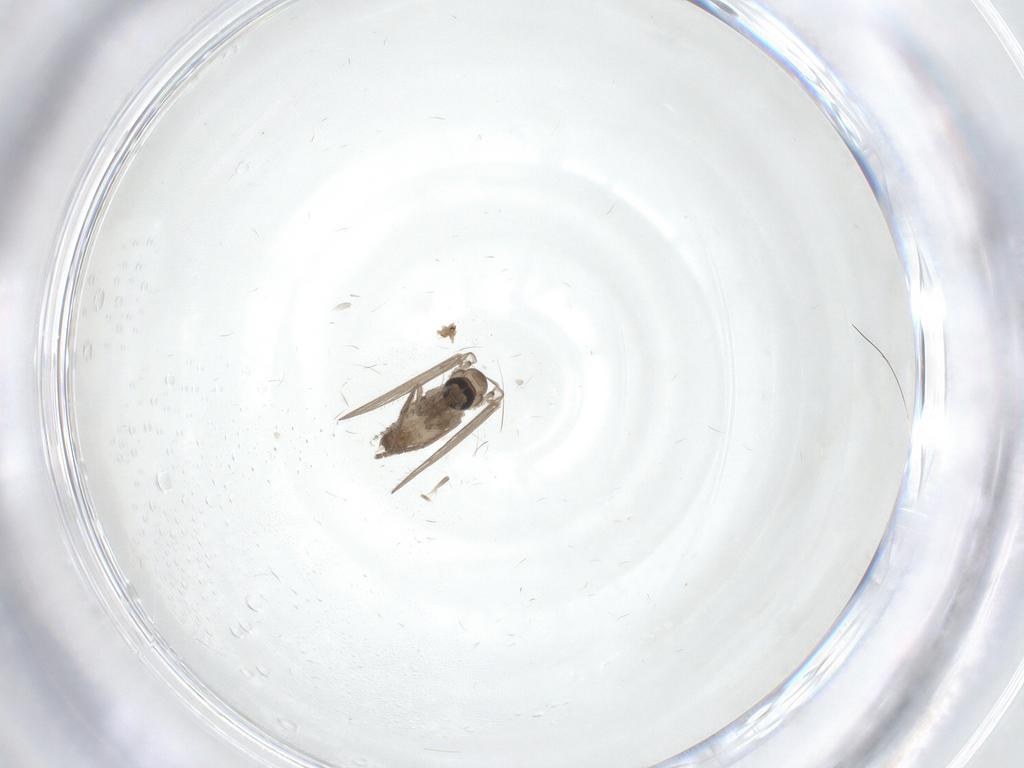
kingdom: Animalia
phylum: Arthropoda
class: Insecta
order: Diptera
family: Psychodidae
